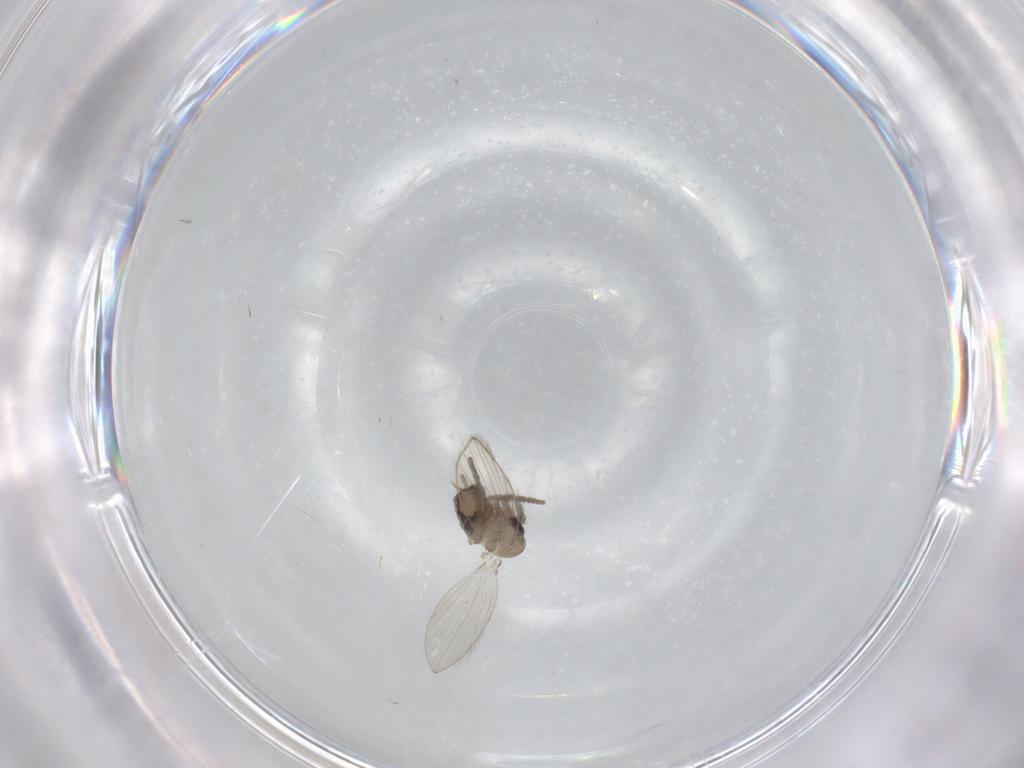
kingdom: Animalia
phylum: Arthropoda
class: Insecta
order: Diptera
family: Psychodidae
